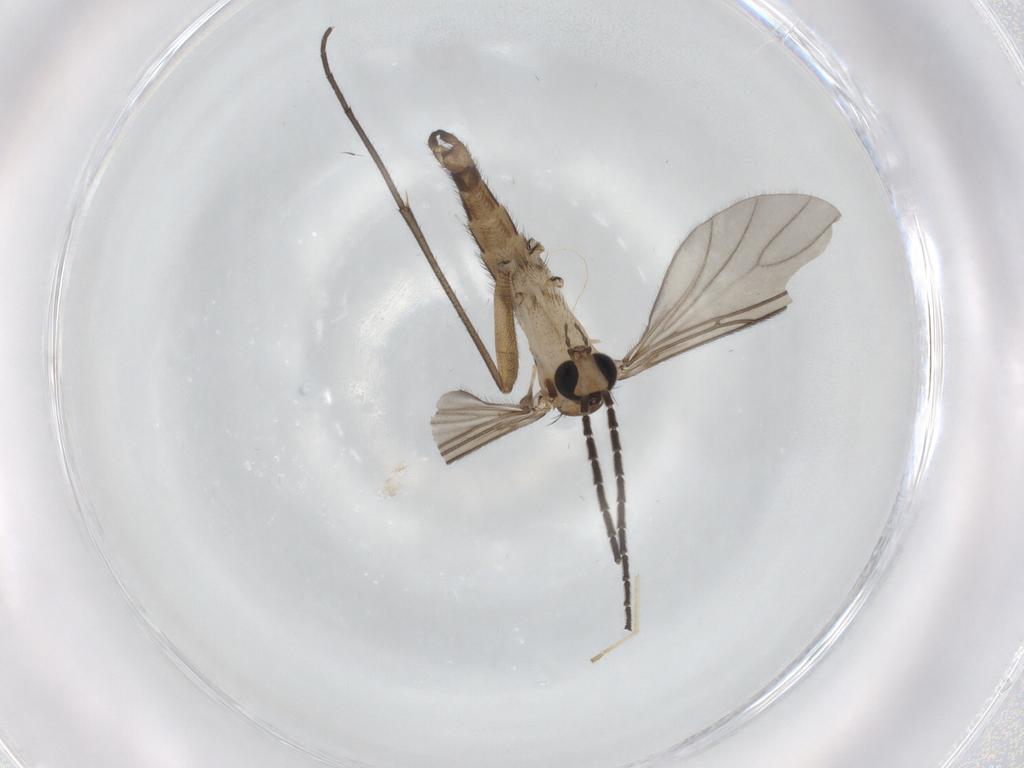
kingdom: Animalia
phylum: Arthropoda
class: Insecta
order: Diptera
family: Sciaridae
